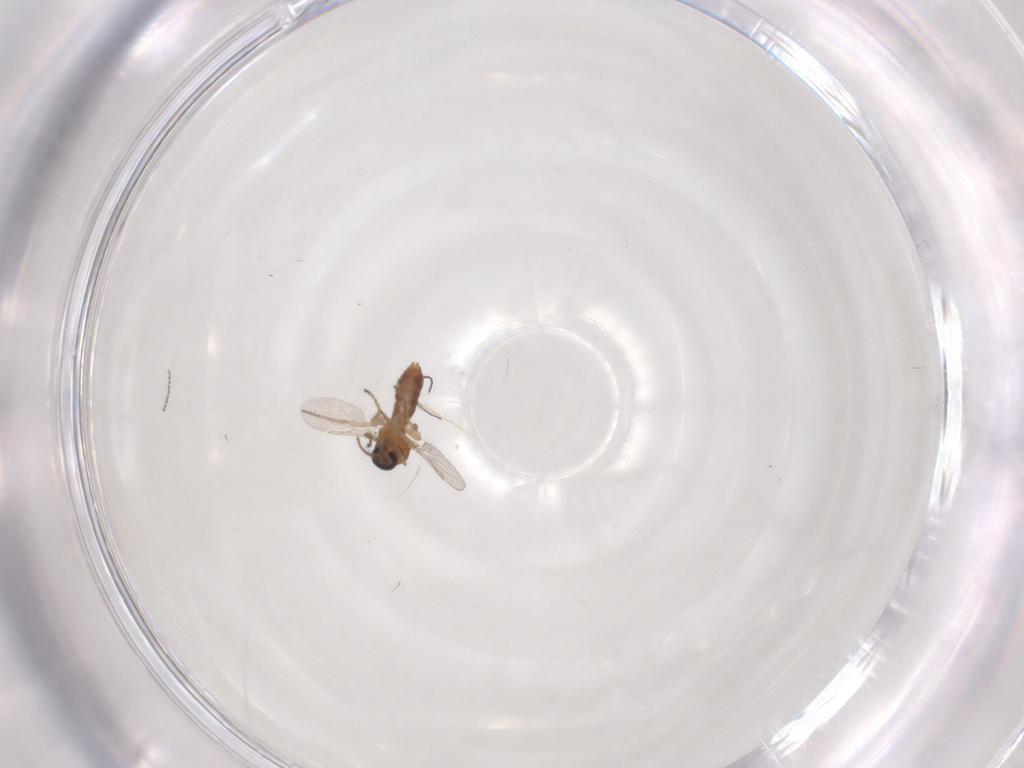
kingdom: Animalia
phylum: Arthropoda
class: Insecta
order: Diptera
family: Ceratopogonidae
